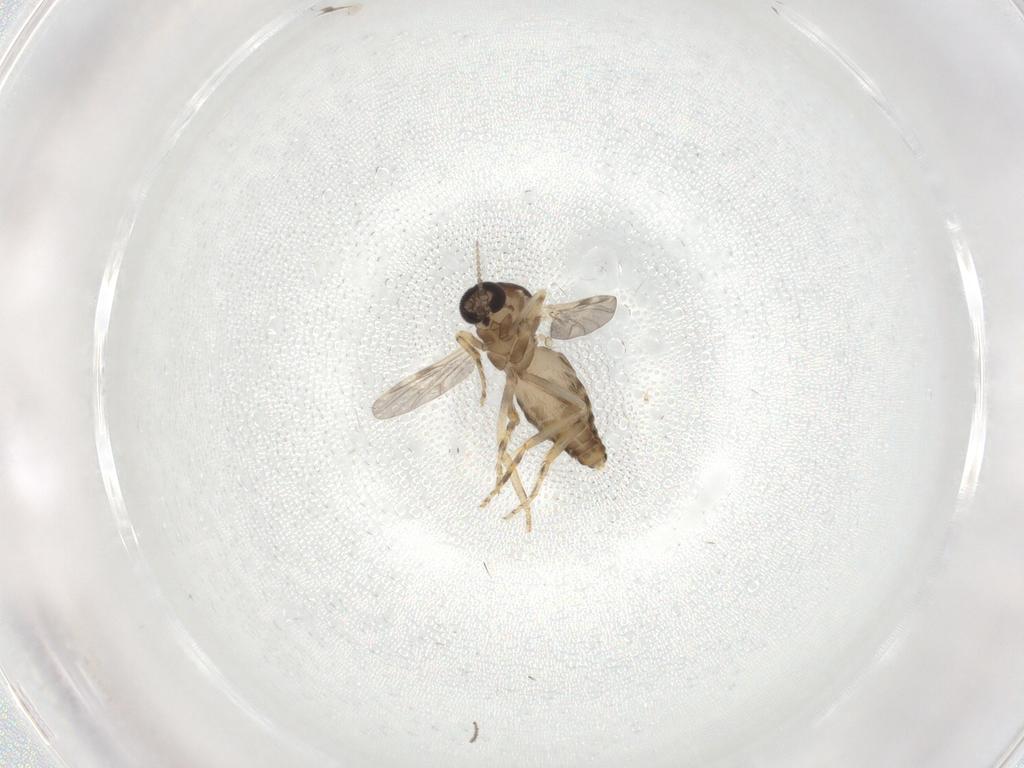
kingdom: Animalia
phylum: Arthropoda
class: Insecta
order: Diptera
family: Ceratopogonidae
